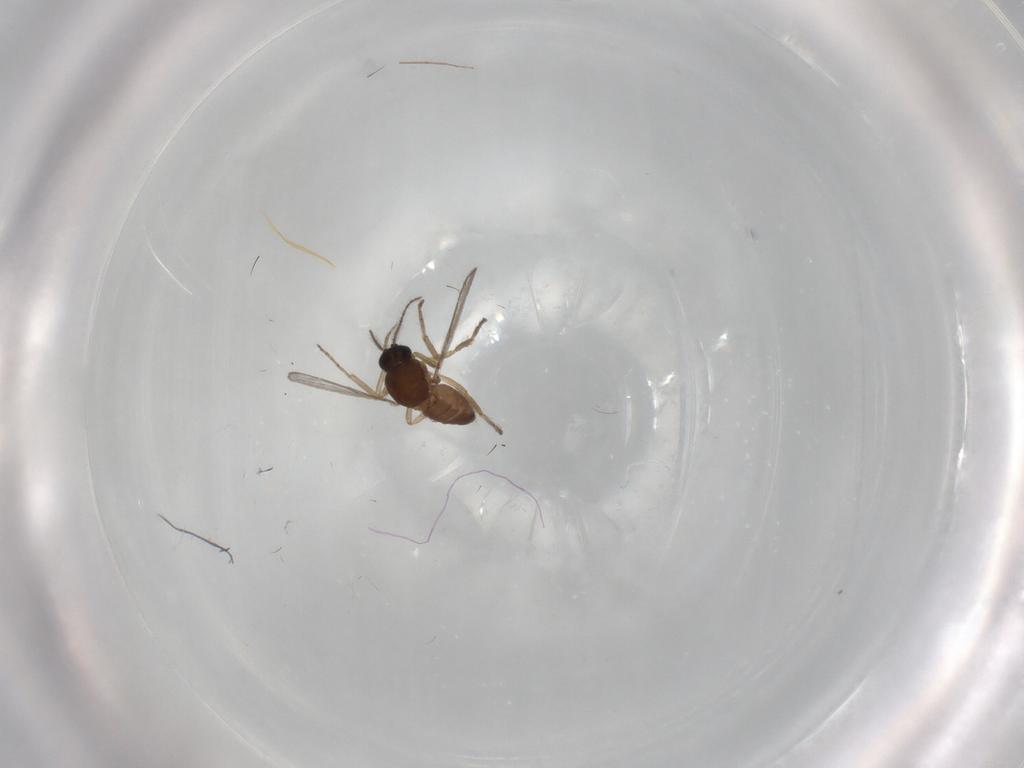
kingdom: Animalia
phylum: Arthropoda
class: Insecta
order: Diptera
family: Chironomidae
